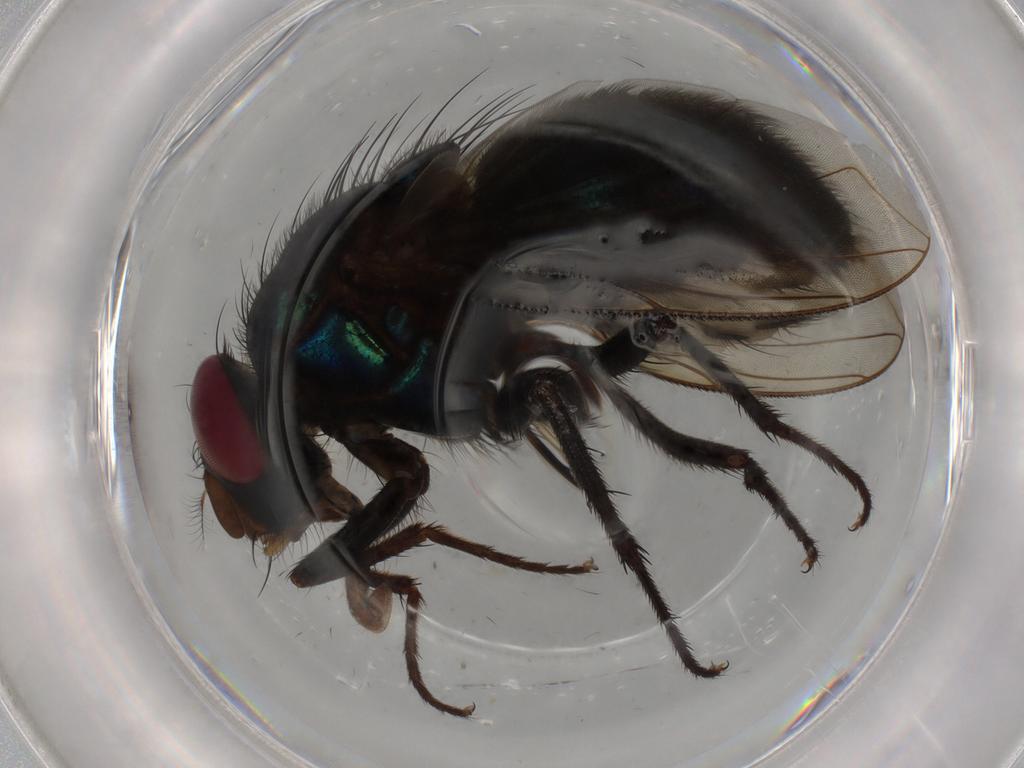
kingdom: Animalia
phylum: Arthropoda
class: Insecta
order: Diptera
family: Calliphoridae
